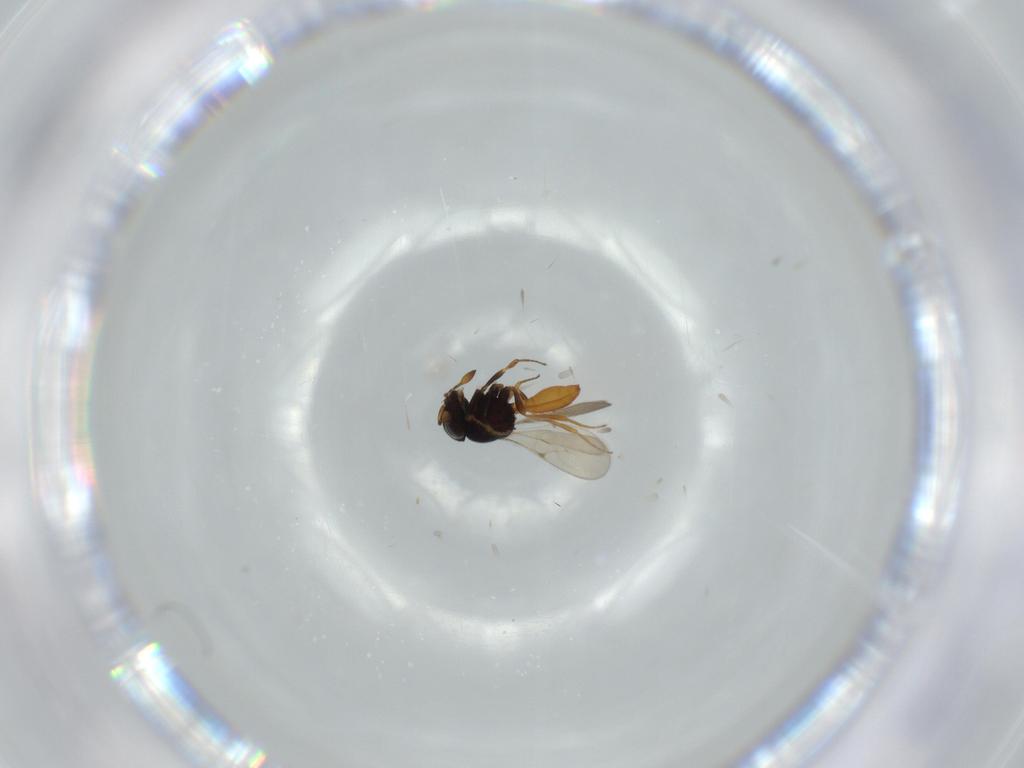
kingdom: Animalia
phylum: Arthropoda
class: Insecta
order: Hymenoptera
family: Scelionidae
